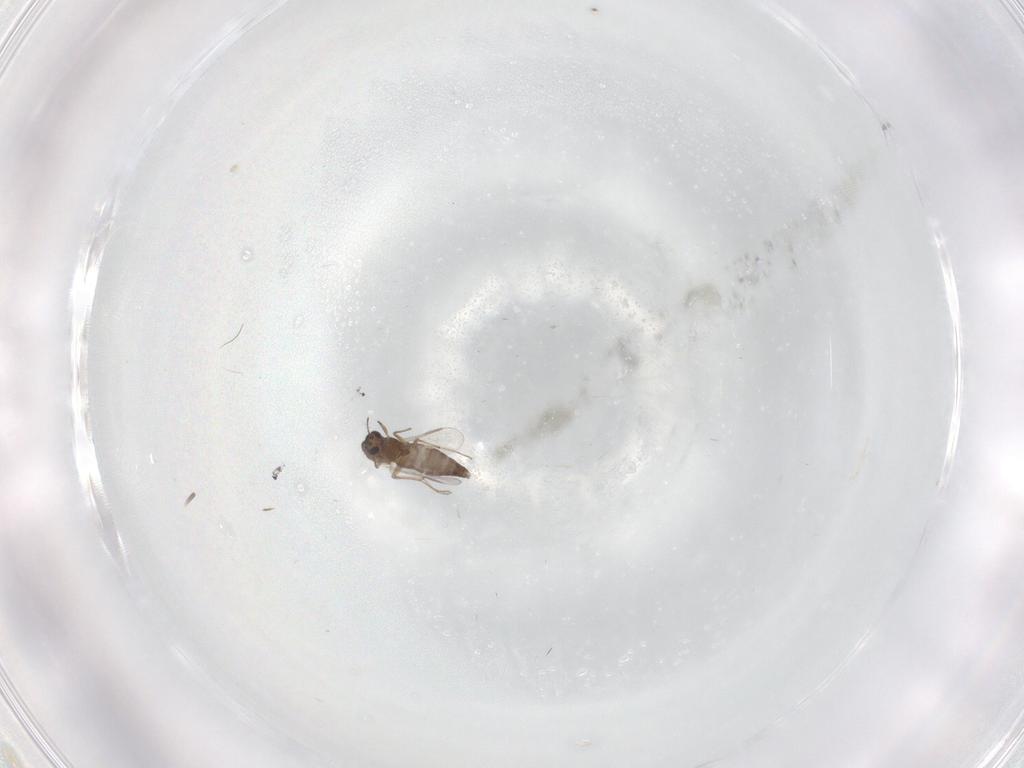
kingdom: Animalia
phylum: Arthropoda
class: Insecta
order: Diptera
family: Chironomidae
